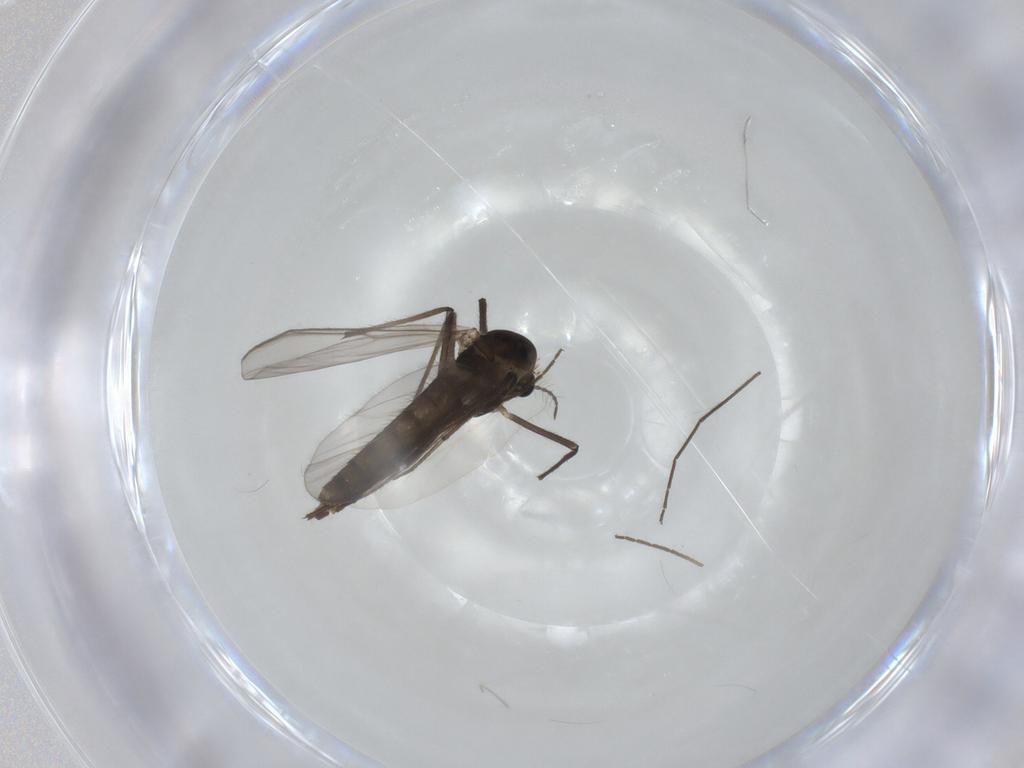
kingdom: Animalia
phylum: Arthropoda
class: Insecta
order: Diptera
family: Chironomidae
